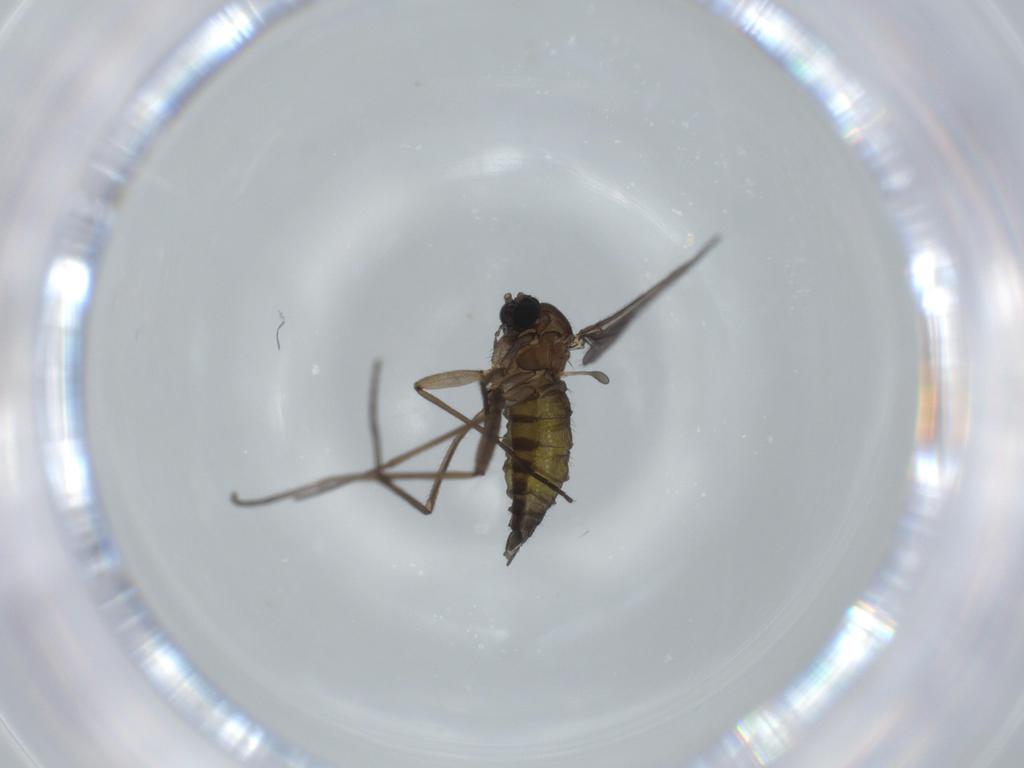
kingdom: Animalia
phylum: Arthropoda
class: Insecta
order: Diptera
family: Sciaridae
